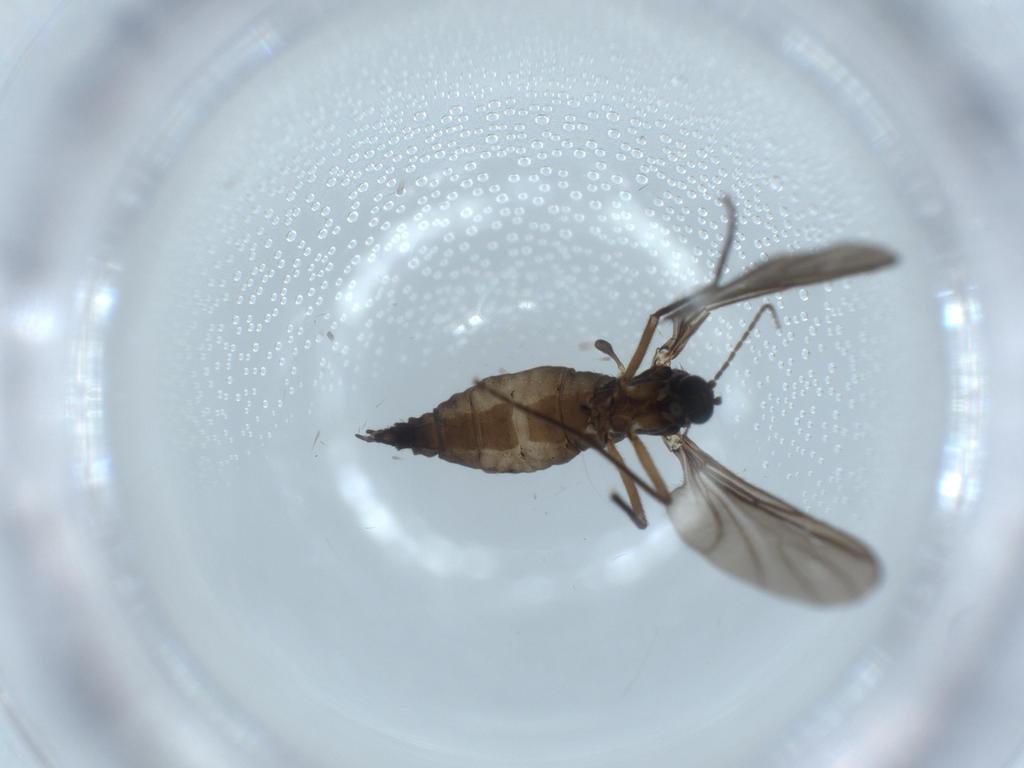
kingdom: Animalia
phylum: Arthropoda
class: Insecta
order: Diptera
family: Sciaridae
